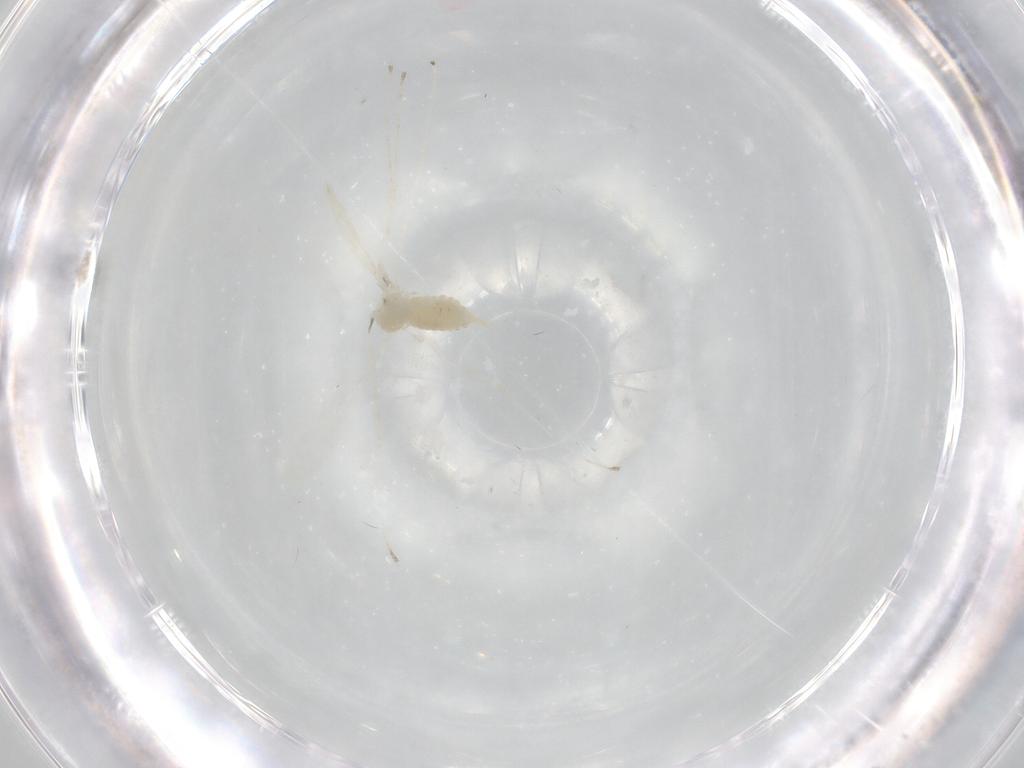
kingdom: Animalia
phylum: Arthropoda
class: Insecta
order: Diptera
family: Cecidomyiidae
